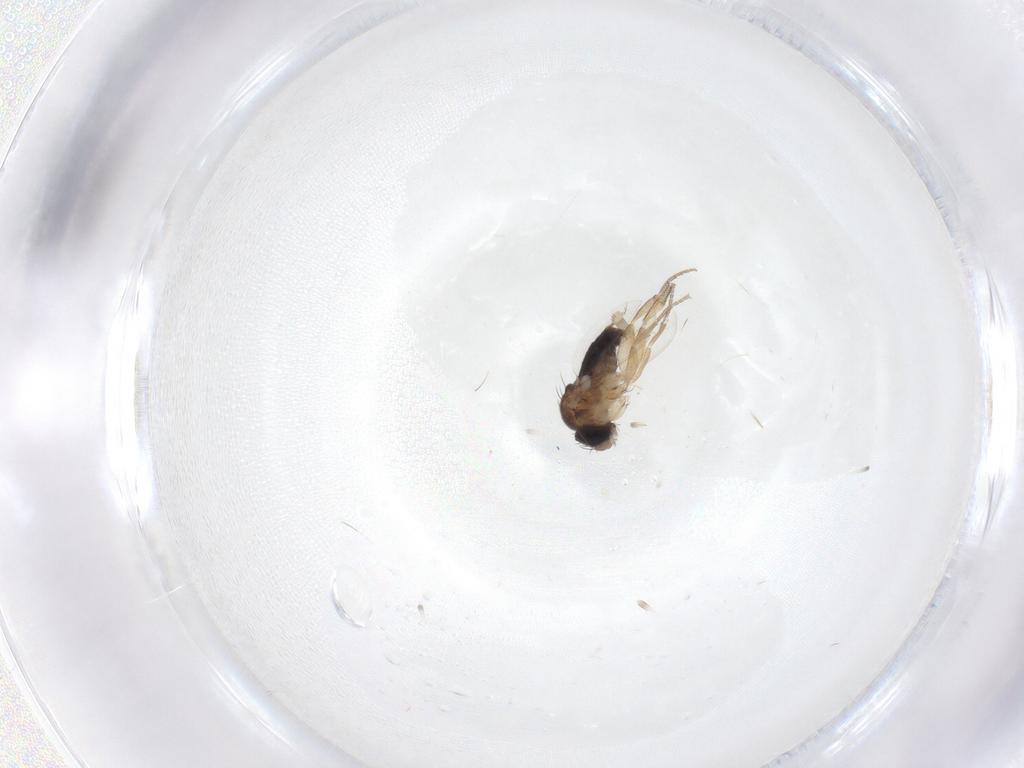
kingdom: Animalia
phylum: Arthropoda
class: Insecta
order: Diptera
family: Phoridae
